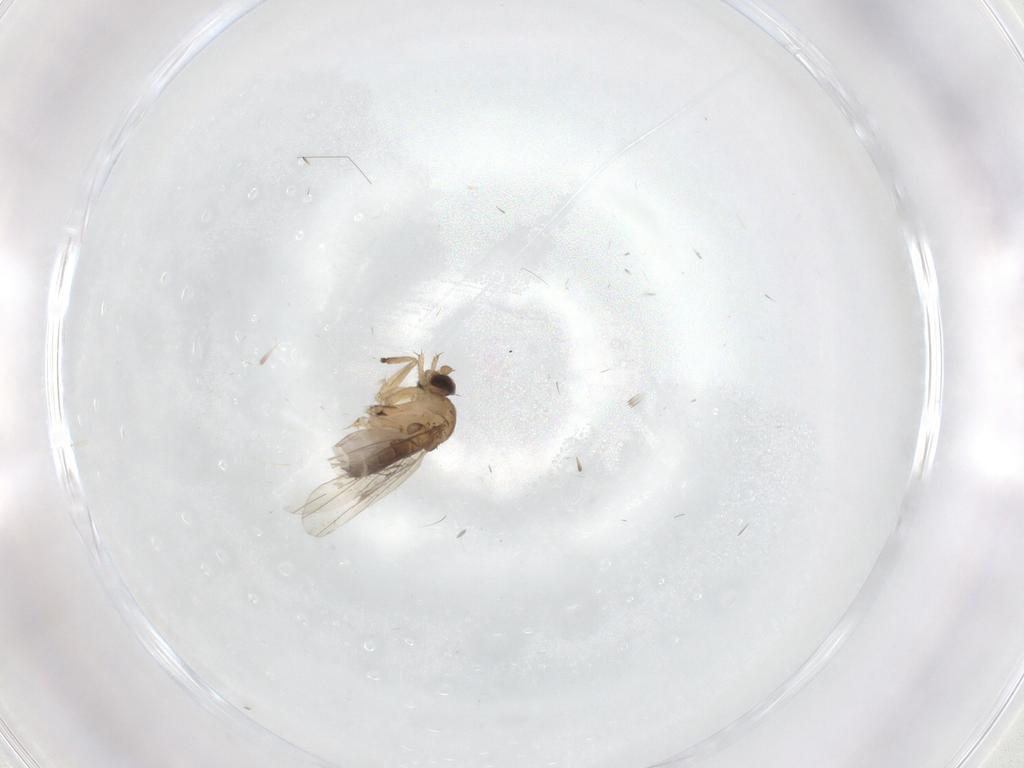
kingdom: Animalia
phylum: Arthropoda
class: Insecta
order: Diptera
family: Phoridae
